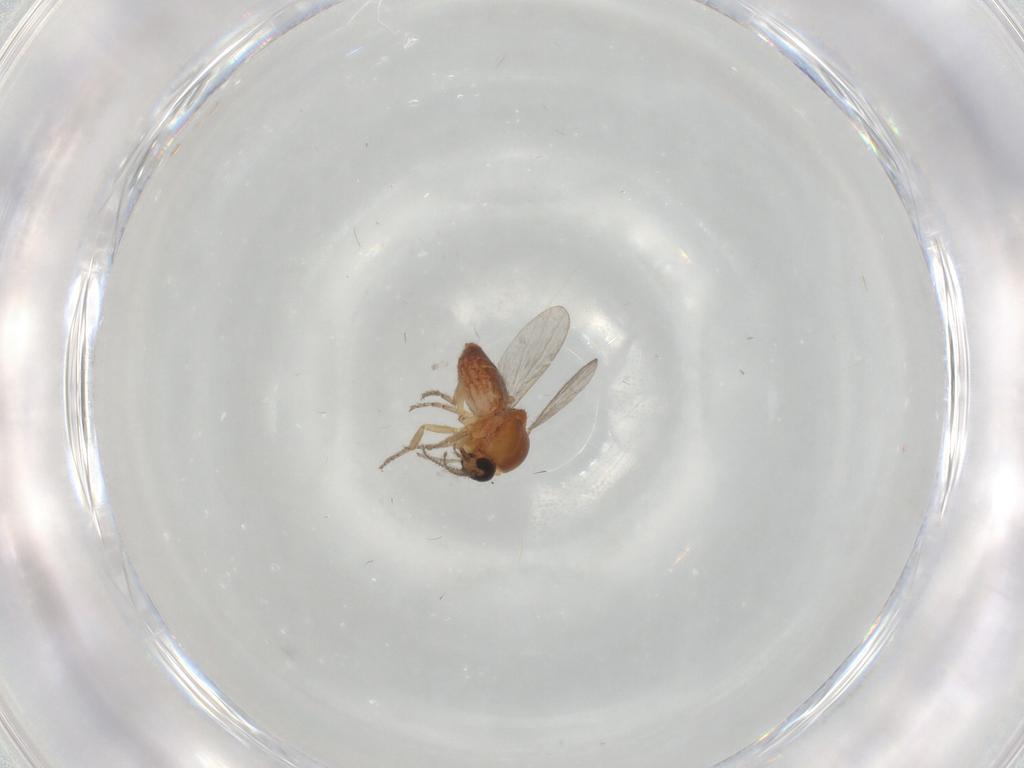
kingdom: Animalia
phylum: Arthropoda
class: Insecta
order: Diptera
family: Ceratopogonidae
